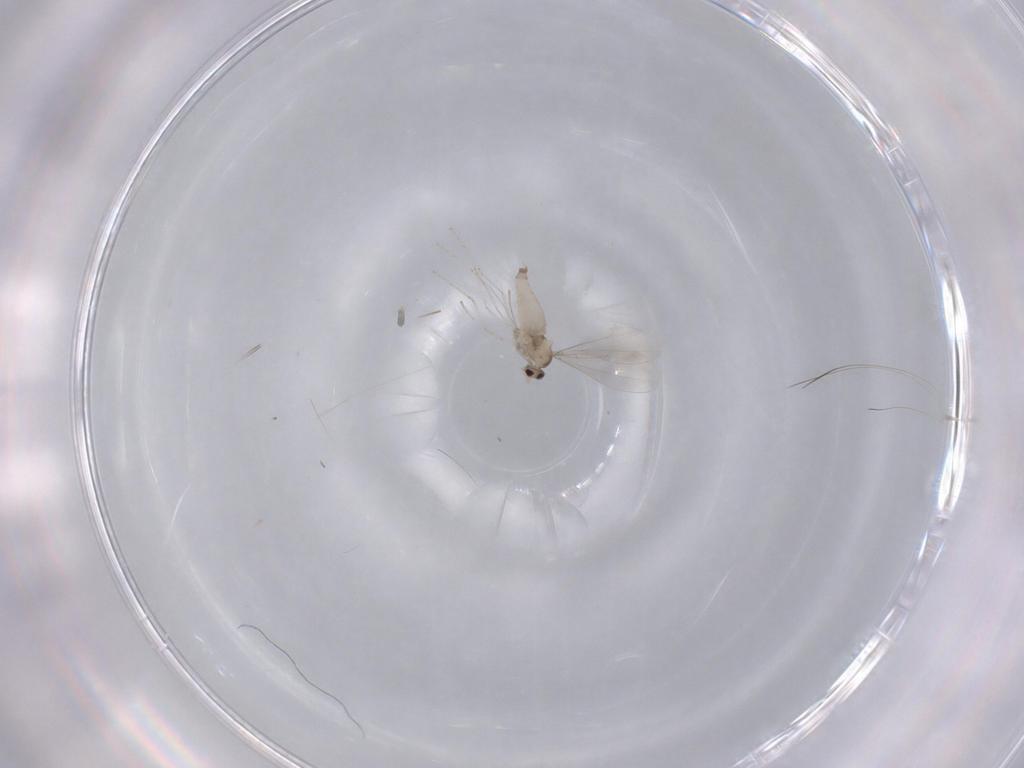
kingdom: Animalia
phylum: Arthropoda
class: Insecta
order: Diptera
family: Cecidomyiidae
